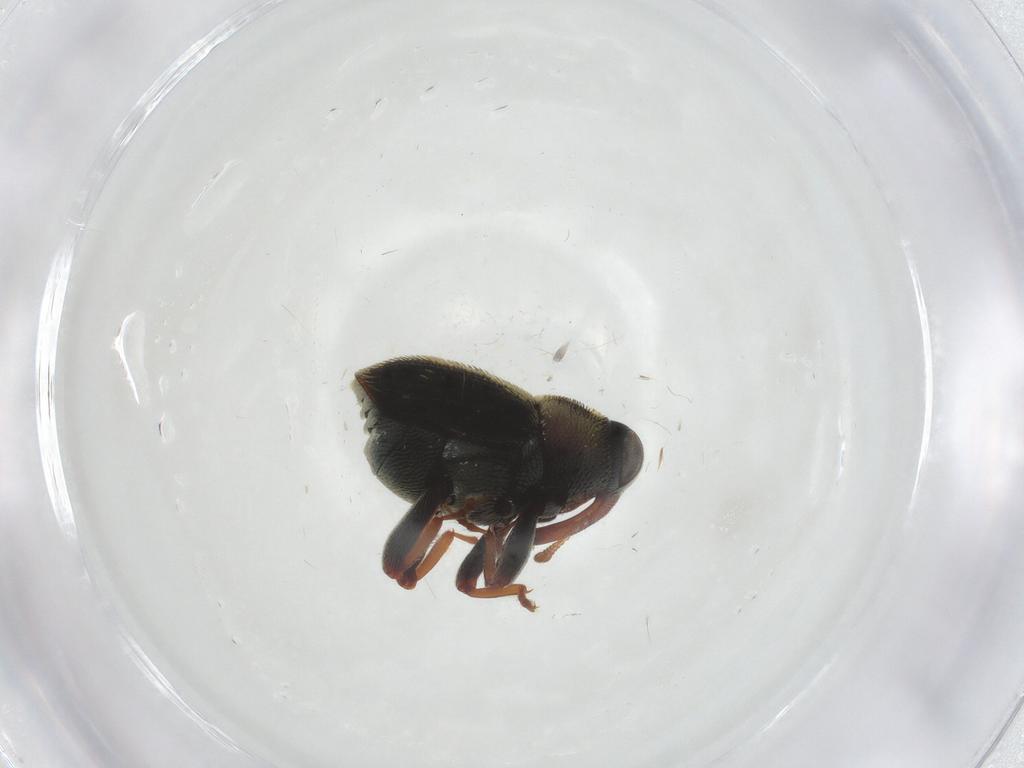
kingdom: Animalia
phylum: Arthropoda
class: Insecta
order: Coleoptera
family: Curculionidae
